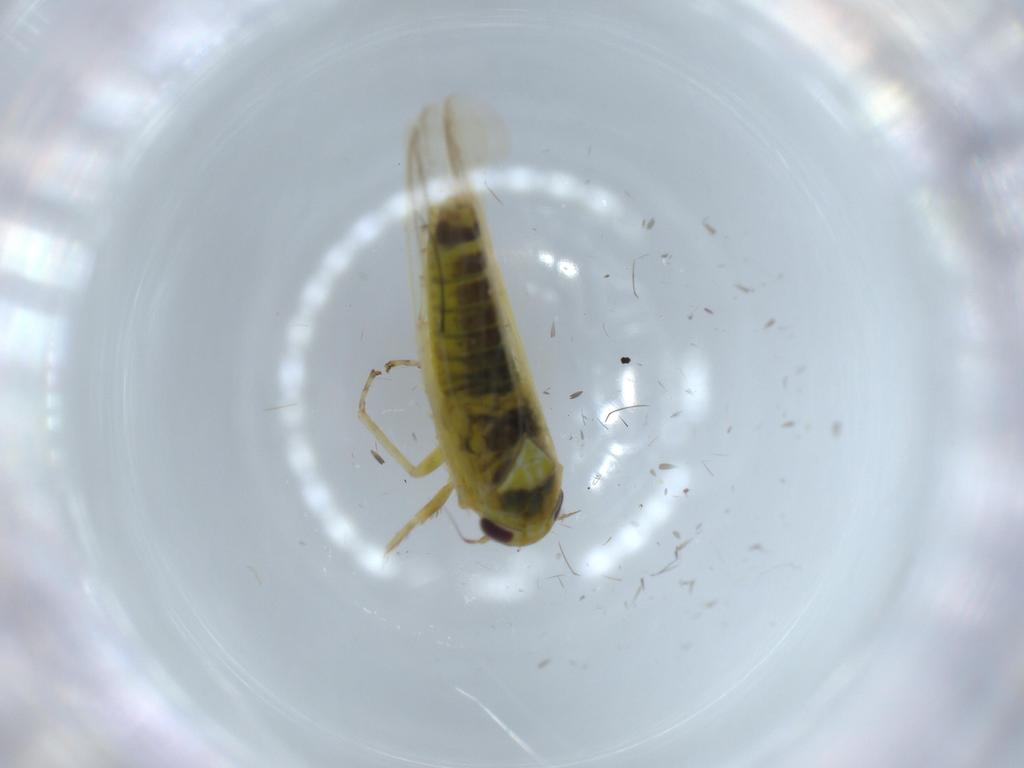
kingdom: Animalia
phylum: Arthropoda
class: Insecta
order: Hemiptera
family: Cicadellidae
